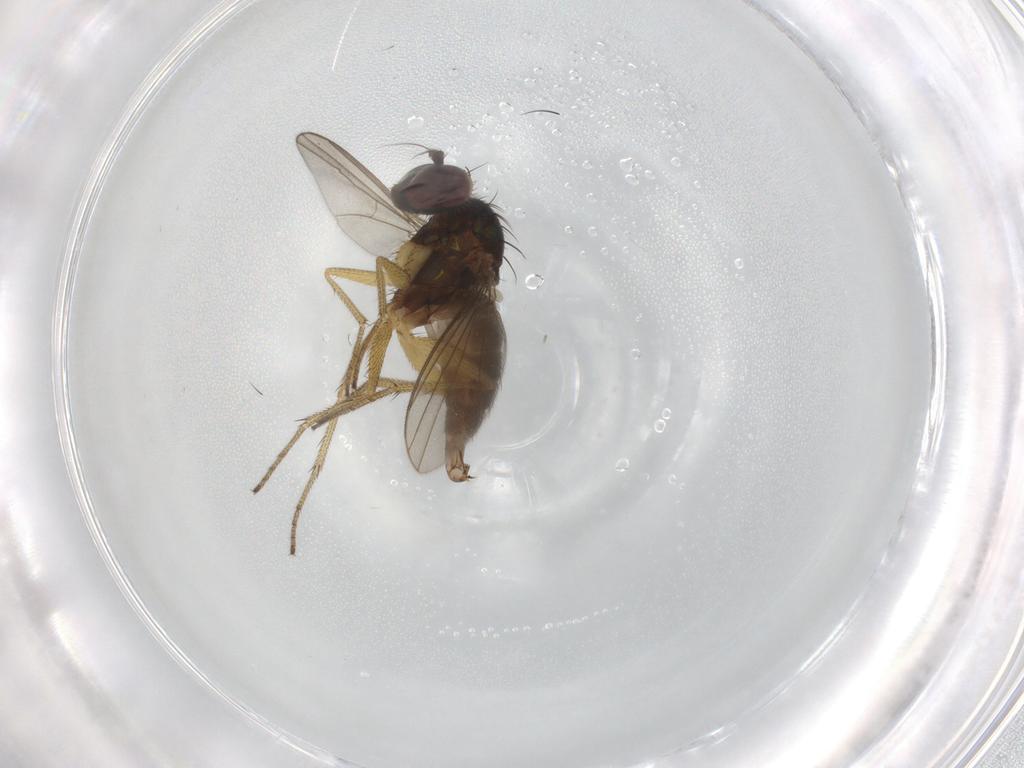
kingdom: Animalia
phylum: Arthropoda
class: Insecta
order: Diptera
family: Dolichopodidae
